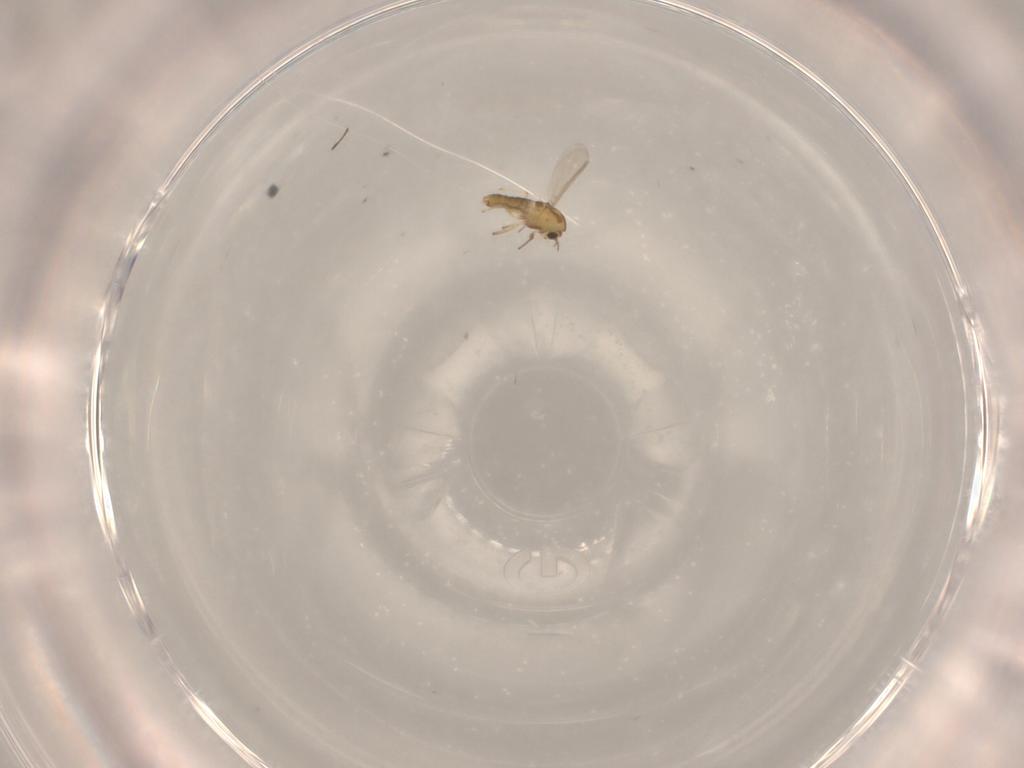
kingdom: Animalia
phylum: Arthropoda
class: Insecta
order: Diptera
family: Psychodidae
